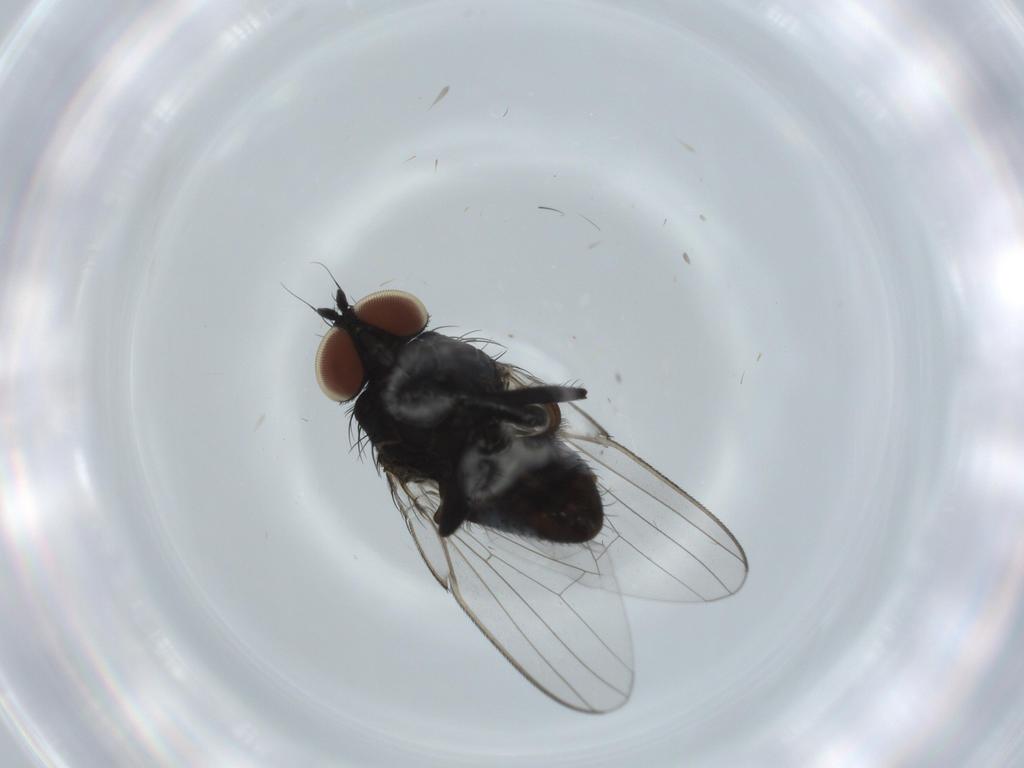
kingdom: Animalia
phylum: Arthropoda
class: Insecta
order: Diptera
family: Milichiidae
